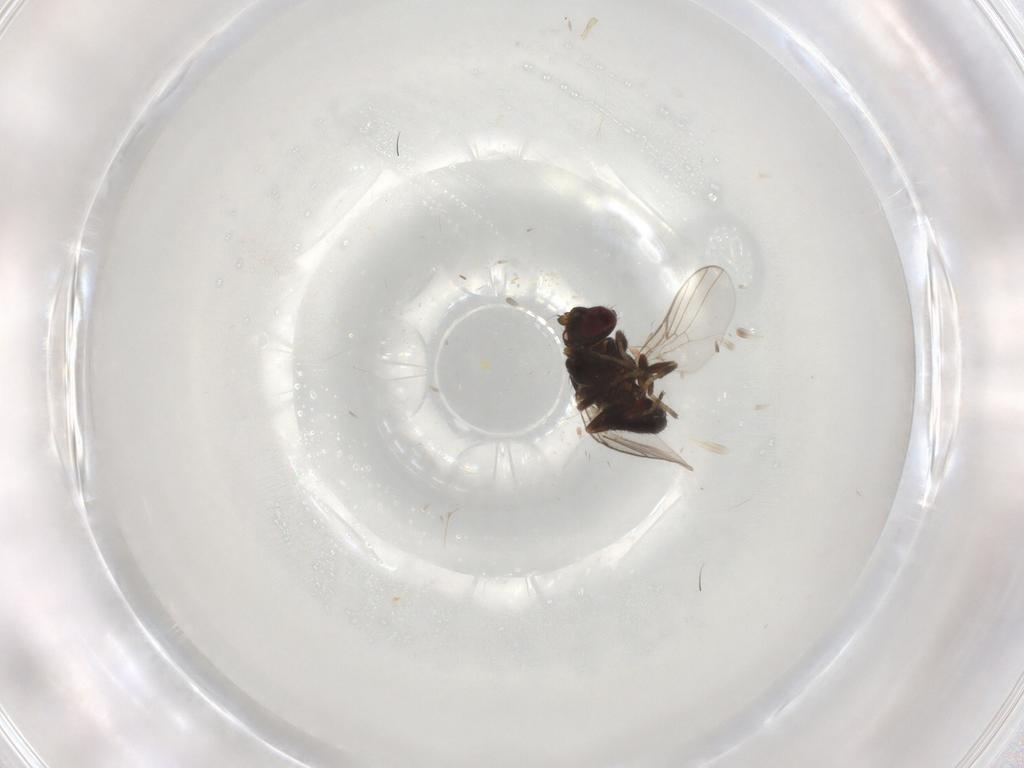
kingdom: Animalia
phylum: Arthropoda
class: Insecta
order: Diptera
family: Chloropidae
